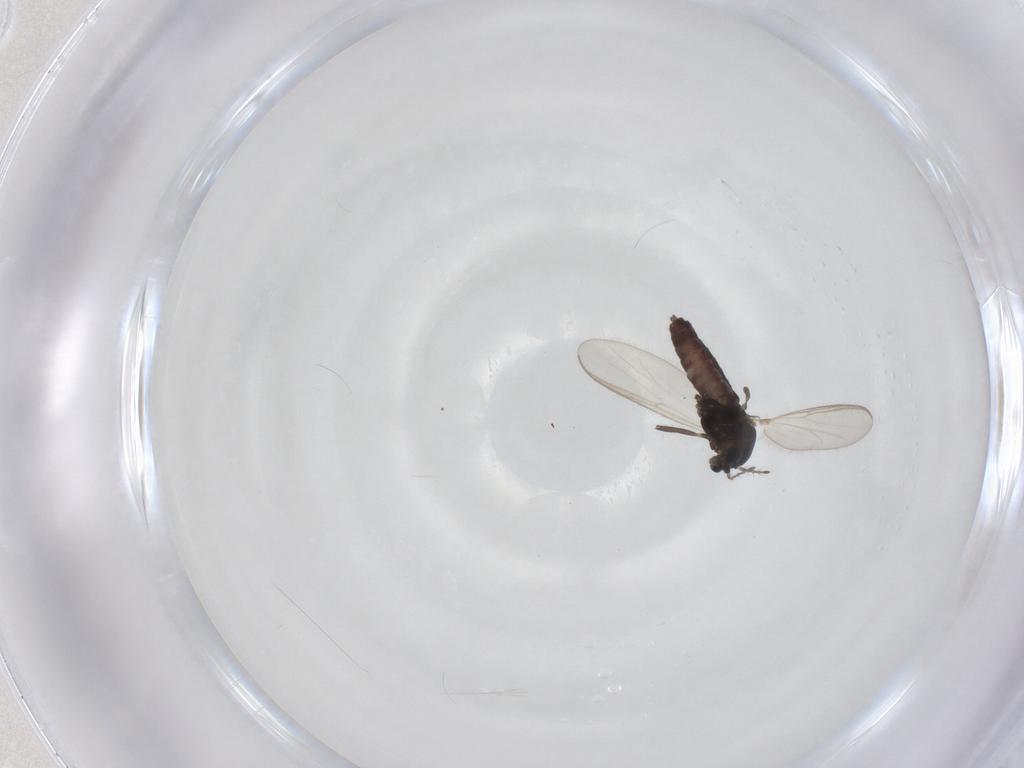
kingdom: Animalia
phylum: Arthropoda
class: Insecta
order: Diptera
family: Chironomidae
